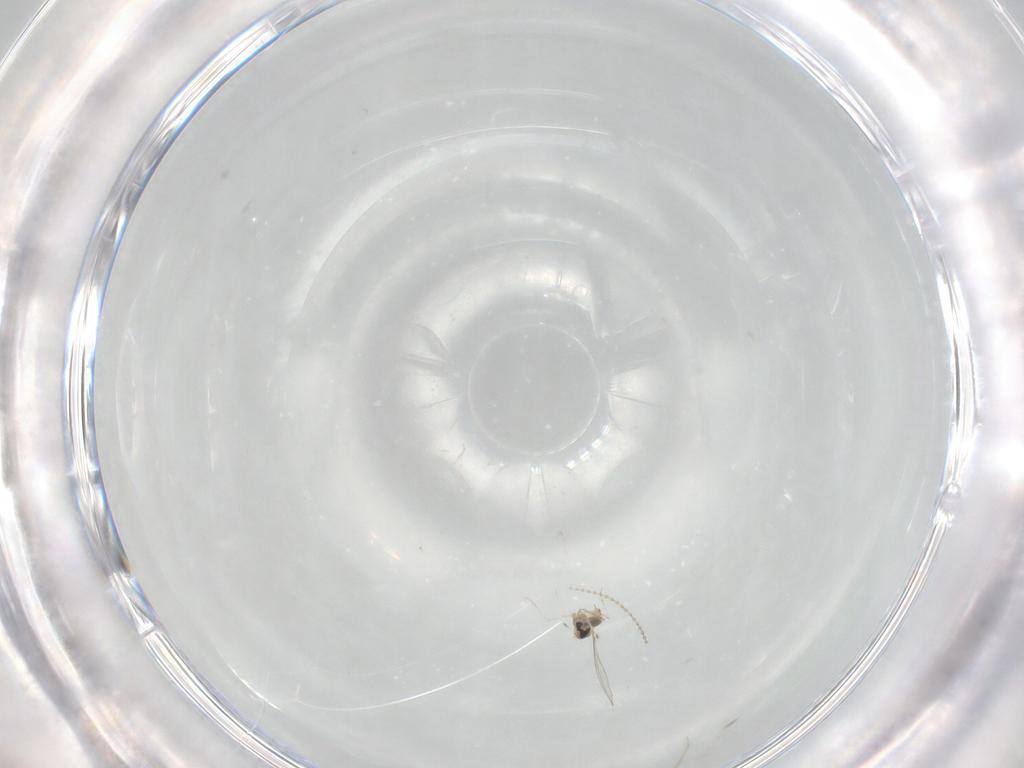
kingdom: Animalia
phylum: Arthropoda
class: Insecta
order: Diptera
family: Cecidomyiidae
